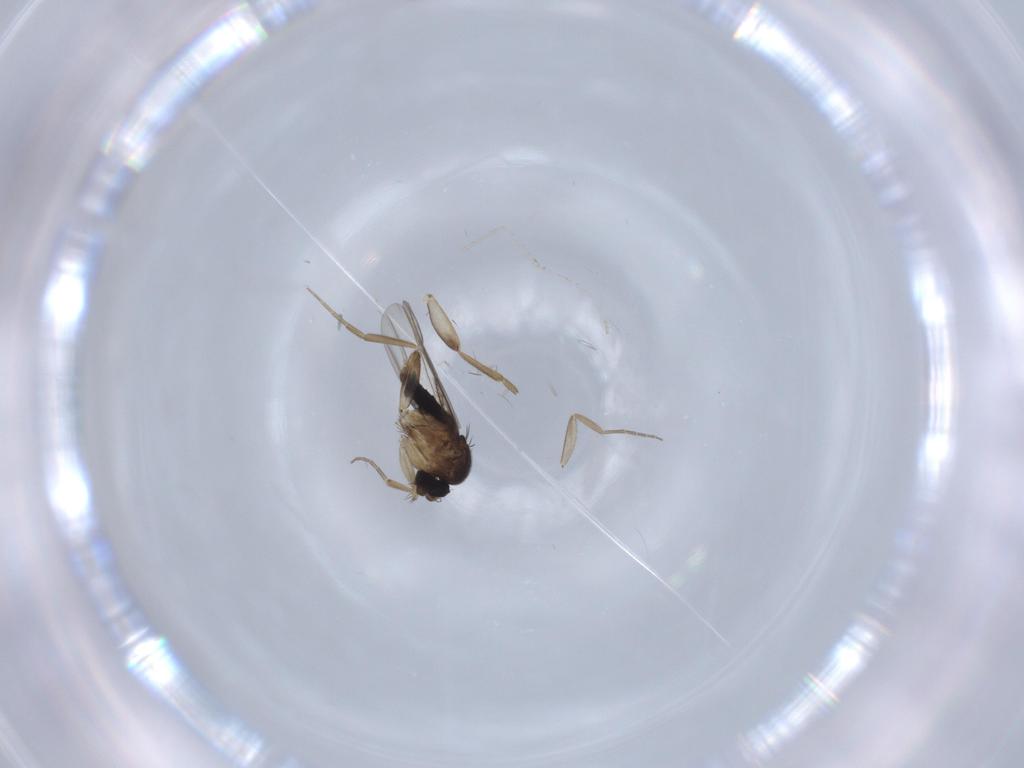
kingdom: Animalia
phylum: Arthropoda
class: Insecta
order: Diptera
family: Phoridae
